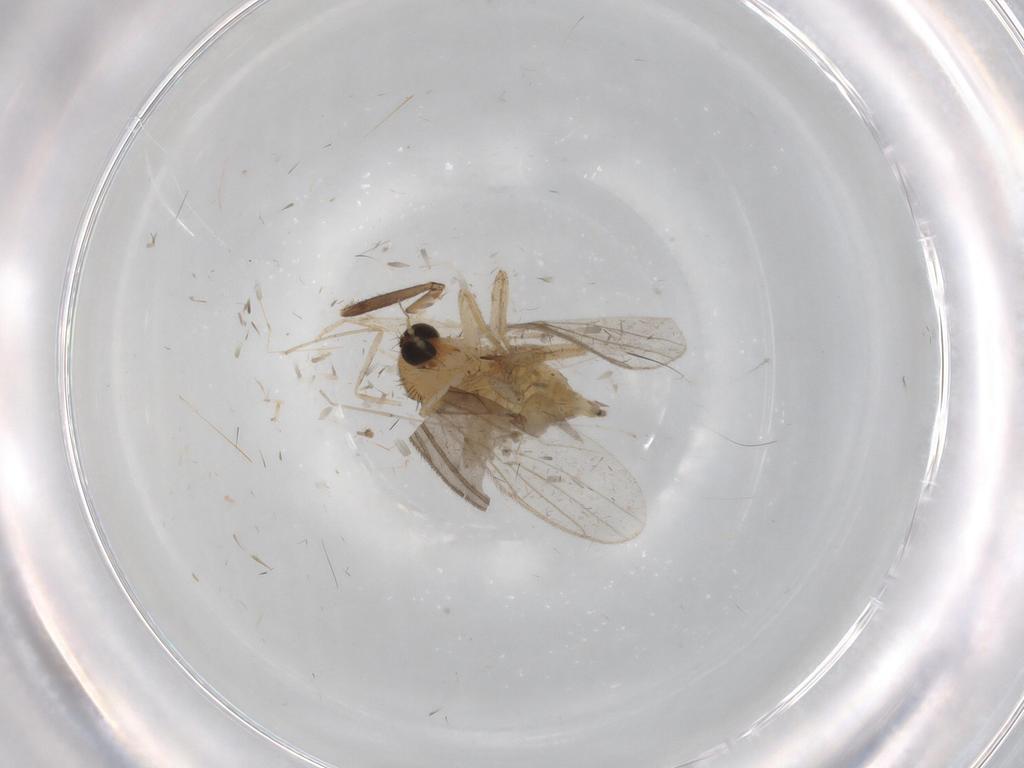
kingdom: Animalia
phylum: Arthropoda
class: Insecta
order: Diptera
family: Hybotidae
